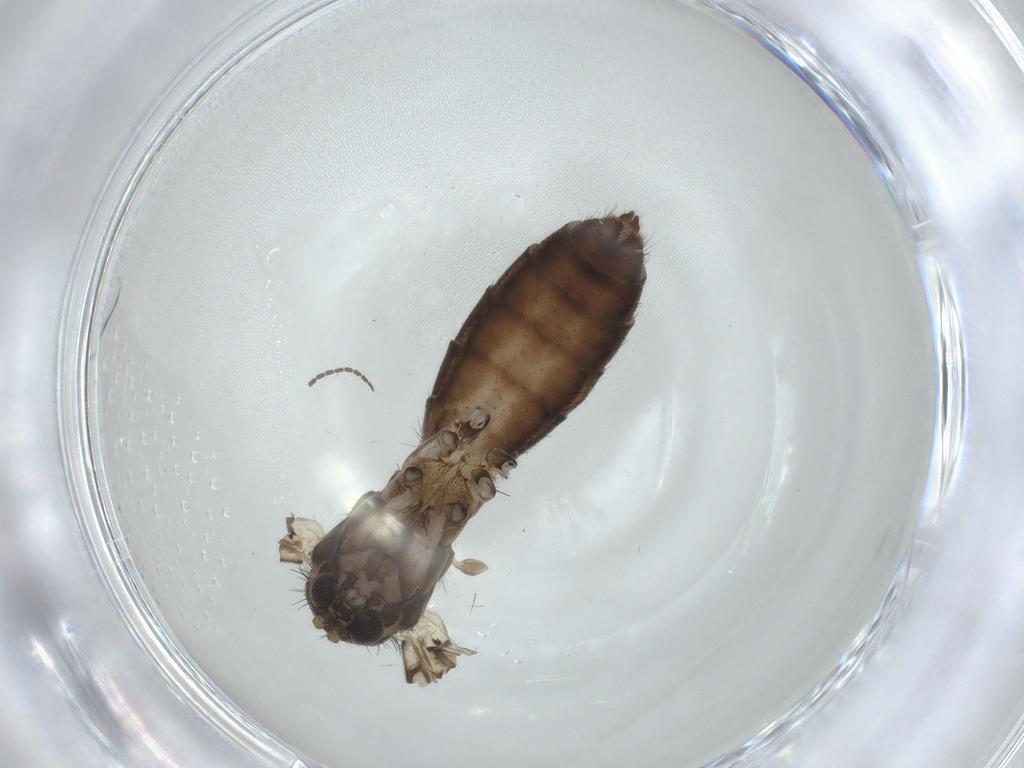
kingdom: Animalia
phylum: Arthropoda
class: Insecta
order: Diptera
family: Mycetophilidae
